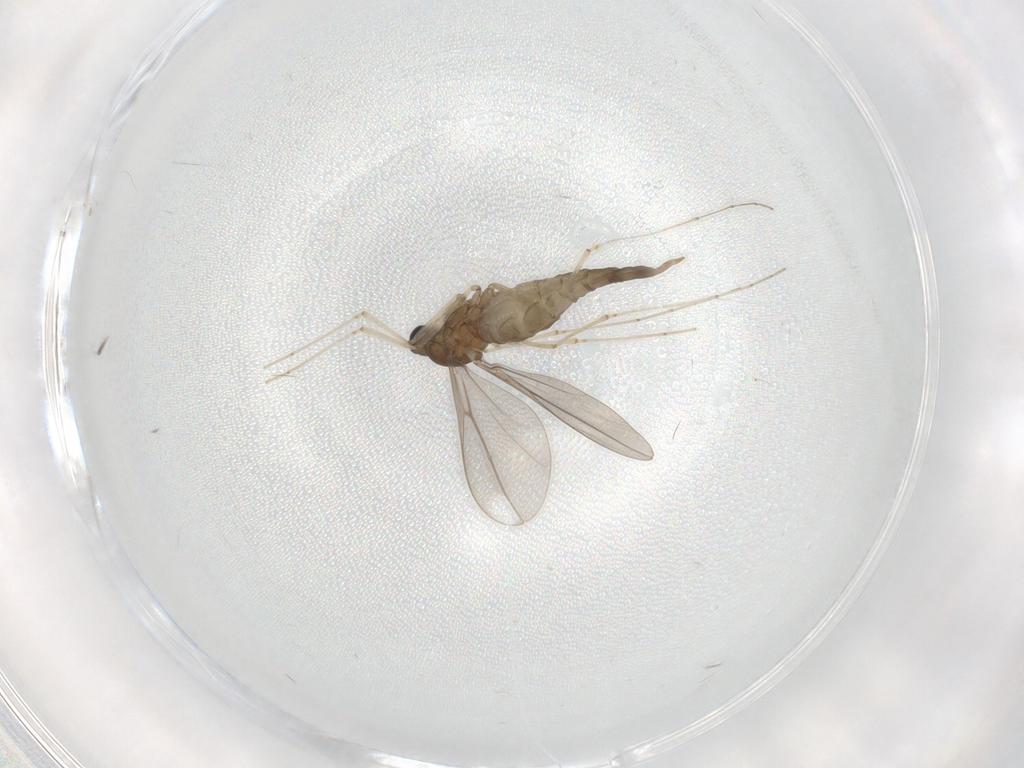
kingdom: Animalia
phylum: Arthropoda
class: Insecta
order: Diptera
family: Cecidomyiidae
